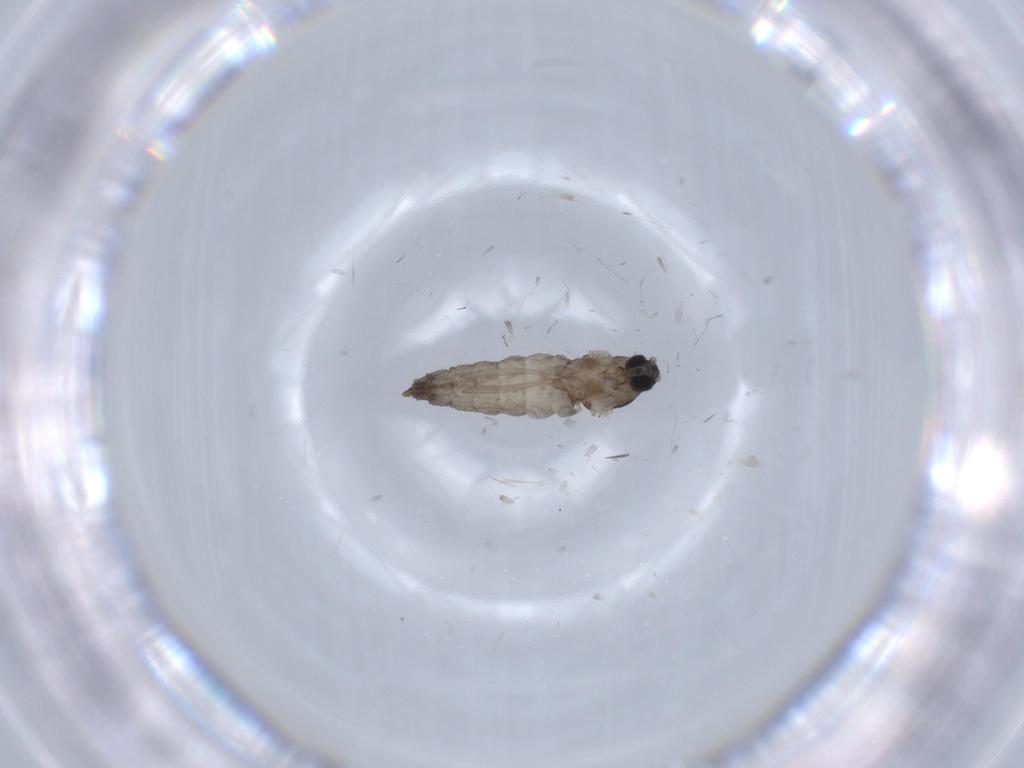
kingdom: Animalia
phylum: Arthropoda
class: Insecta
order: Diptera
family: Cecidomyiidae
